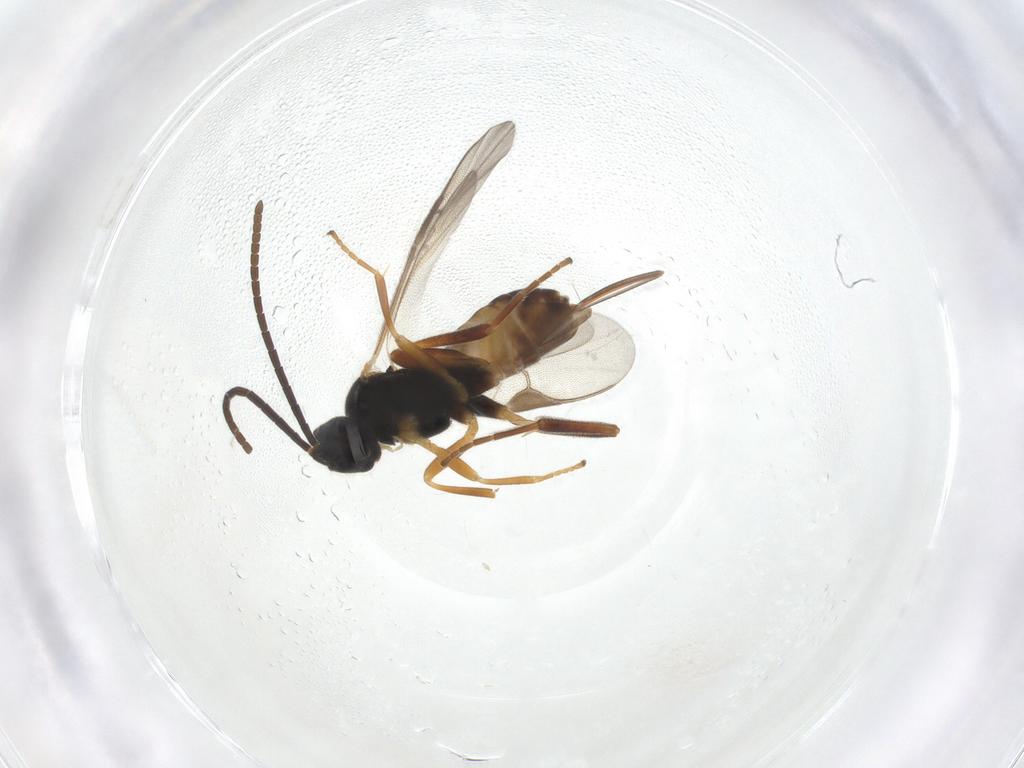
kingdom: Animalia
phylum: Arthropoda
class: Insecta
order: Hymenoptera
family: Braconidae
